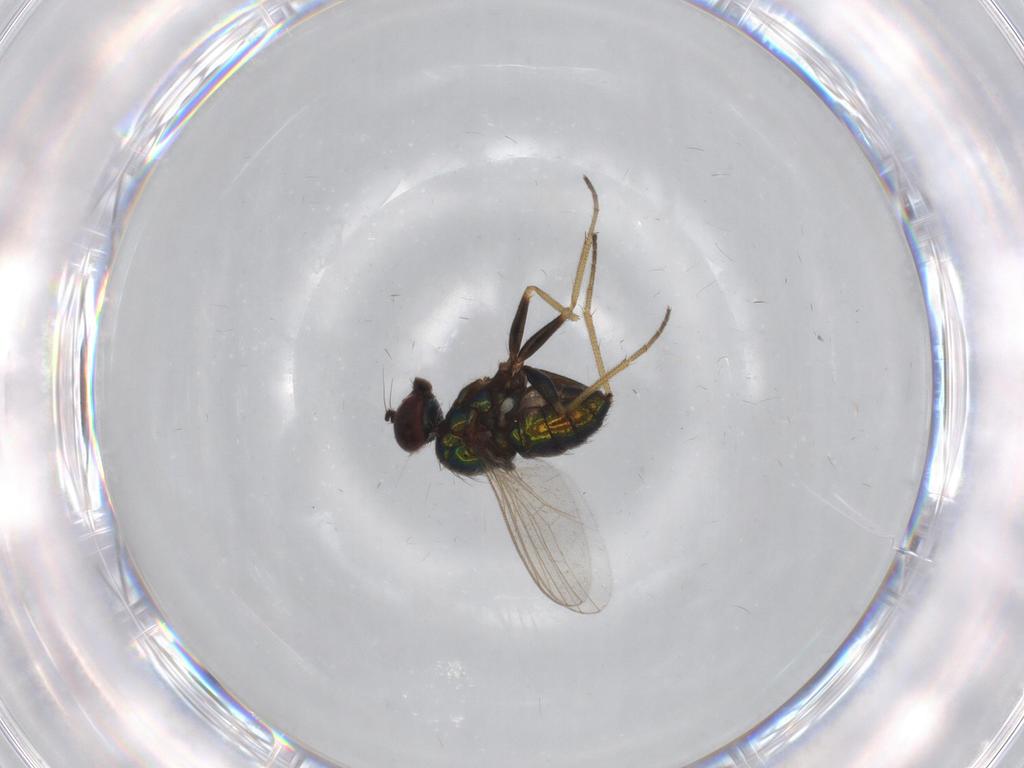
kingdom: Animalia
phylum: Arthropoda
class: Insecta
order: Diptera
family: Dolichopodidae
